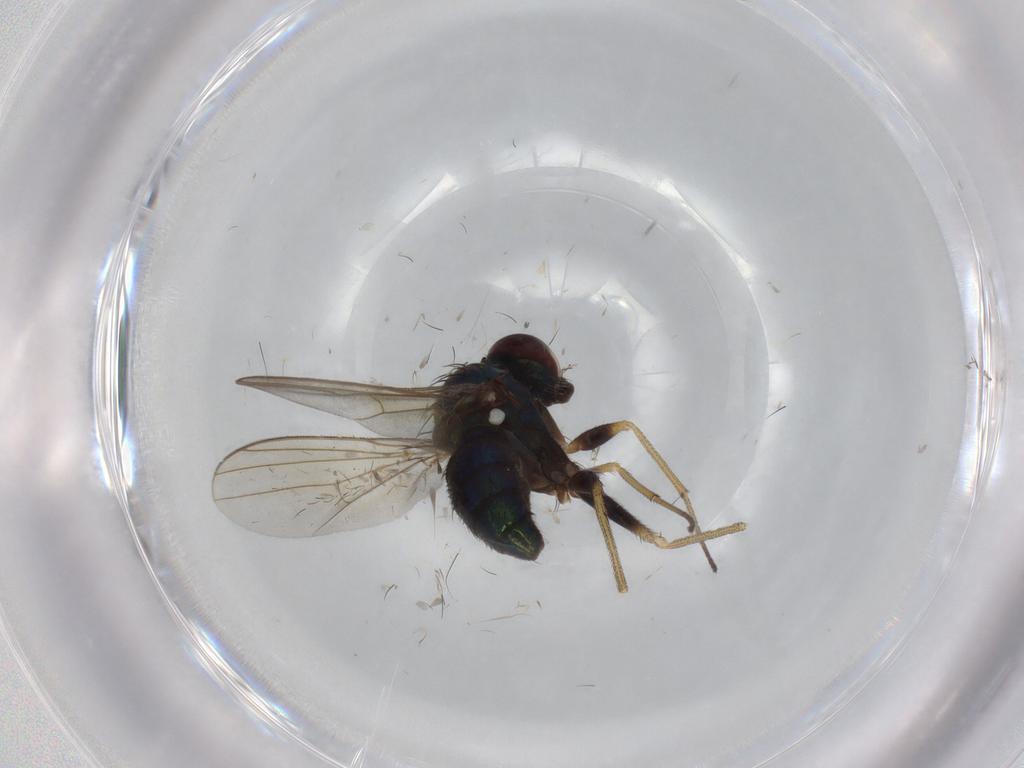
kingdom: Animalia
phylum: Arthropoda
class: Insecta
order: Diptera
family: Dolichopodidae
